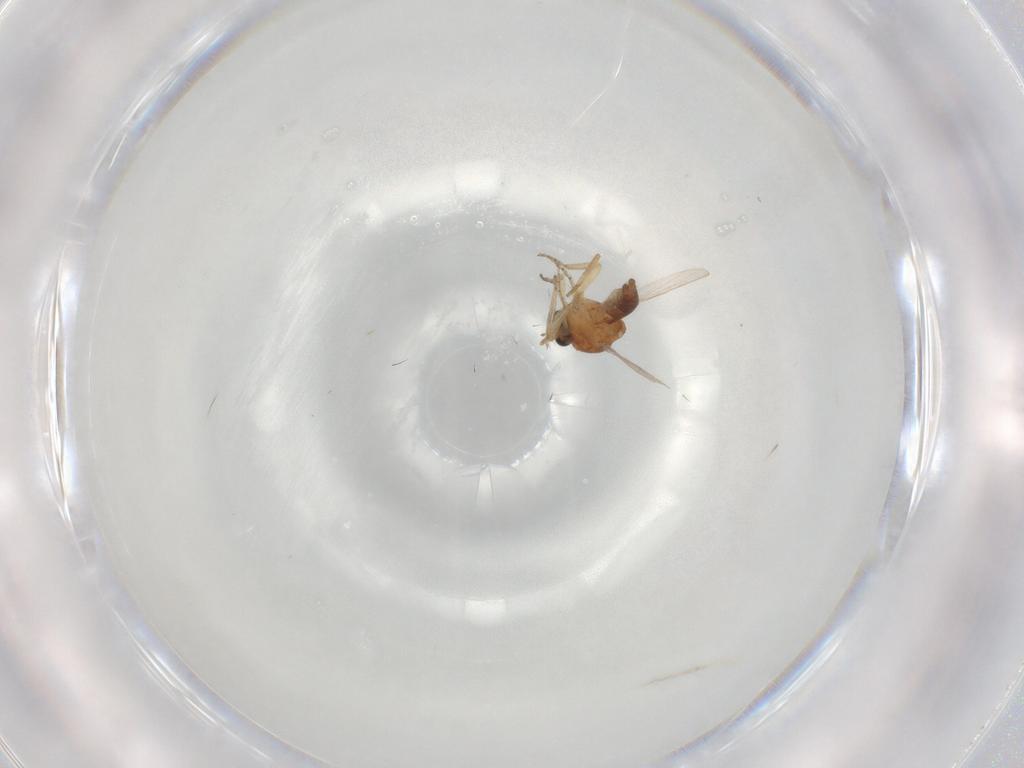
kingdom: Animalia
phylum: Arthropoda
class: Insecta
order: Diptera
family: Ceratopogonidae
